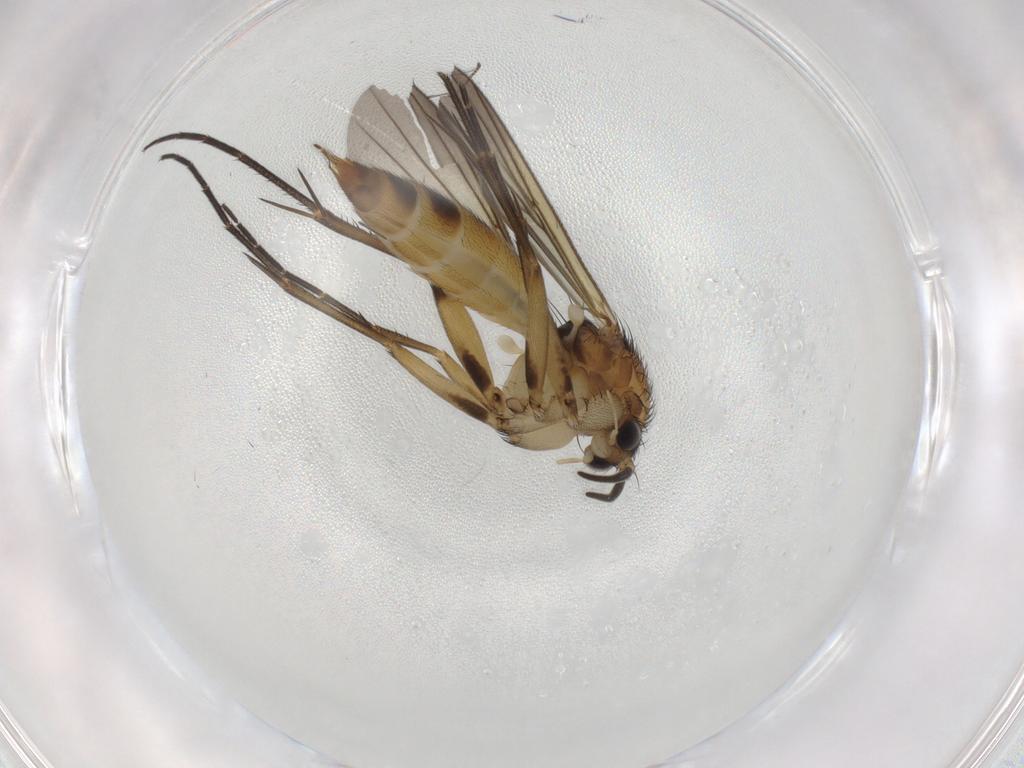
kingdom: Animalia
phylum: Arthropoda
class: Insecta
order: Diptera
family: Mycetophilidae
